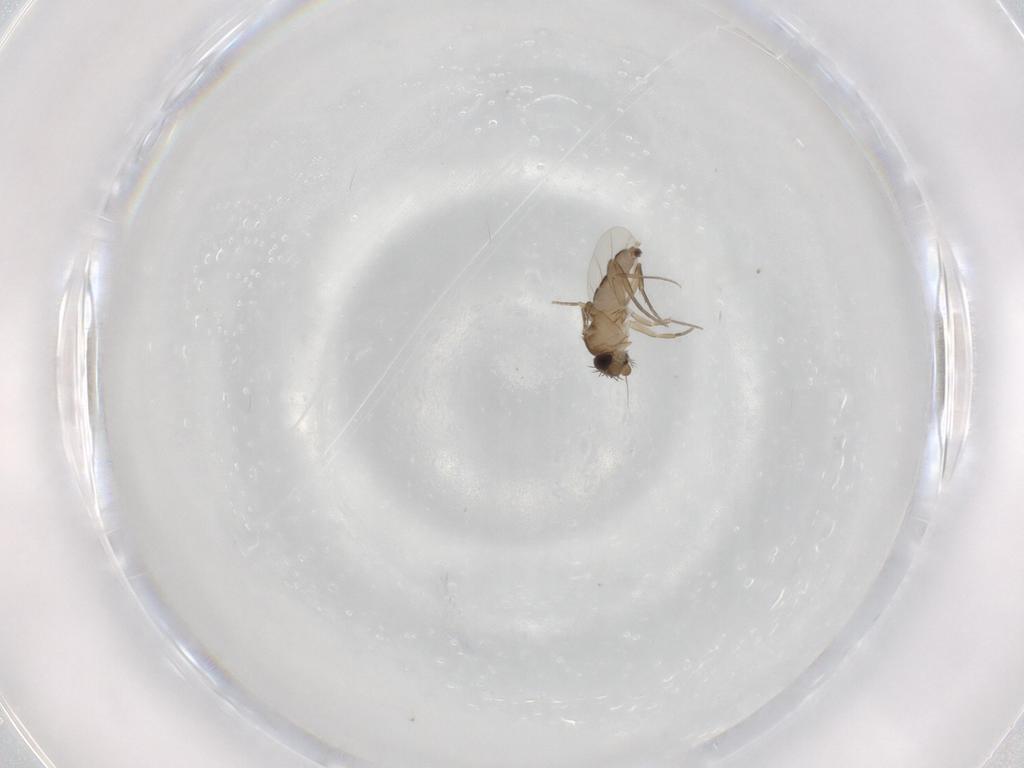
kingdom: Animalia
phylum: Arthropoda
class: Insecta
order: Diptera
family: Phoridae
